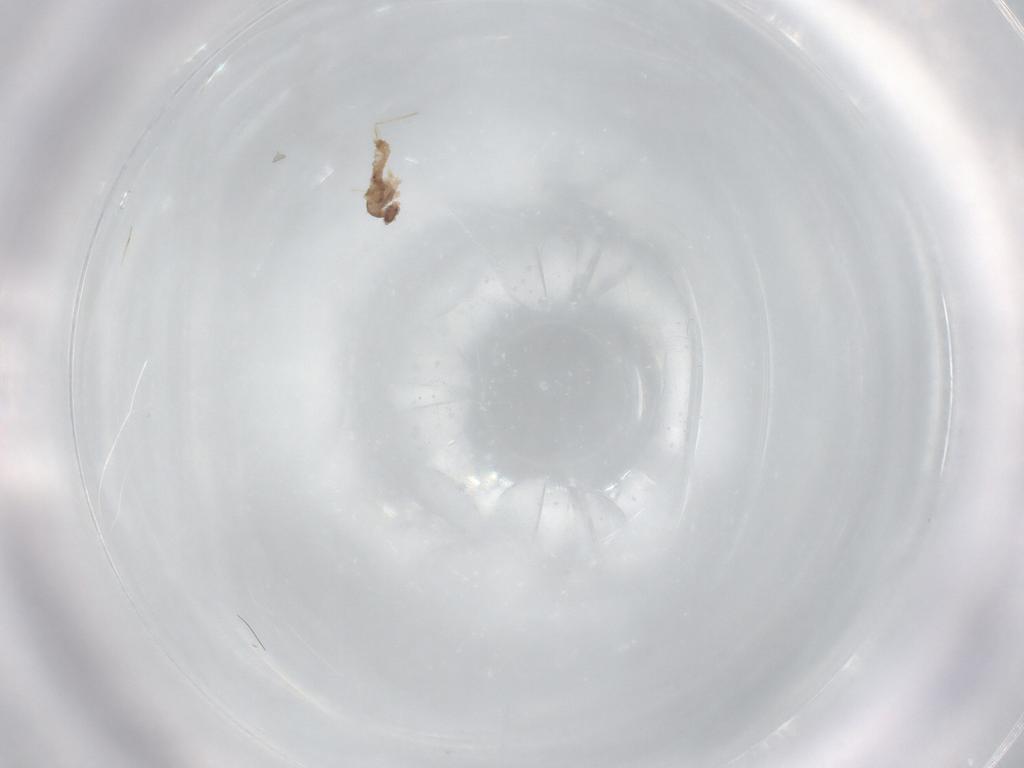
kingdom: Animalia
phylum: Arthropoda
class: Insecta
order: Diptera
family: Cecidomyiidae
